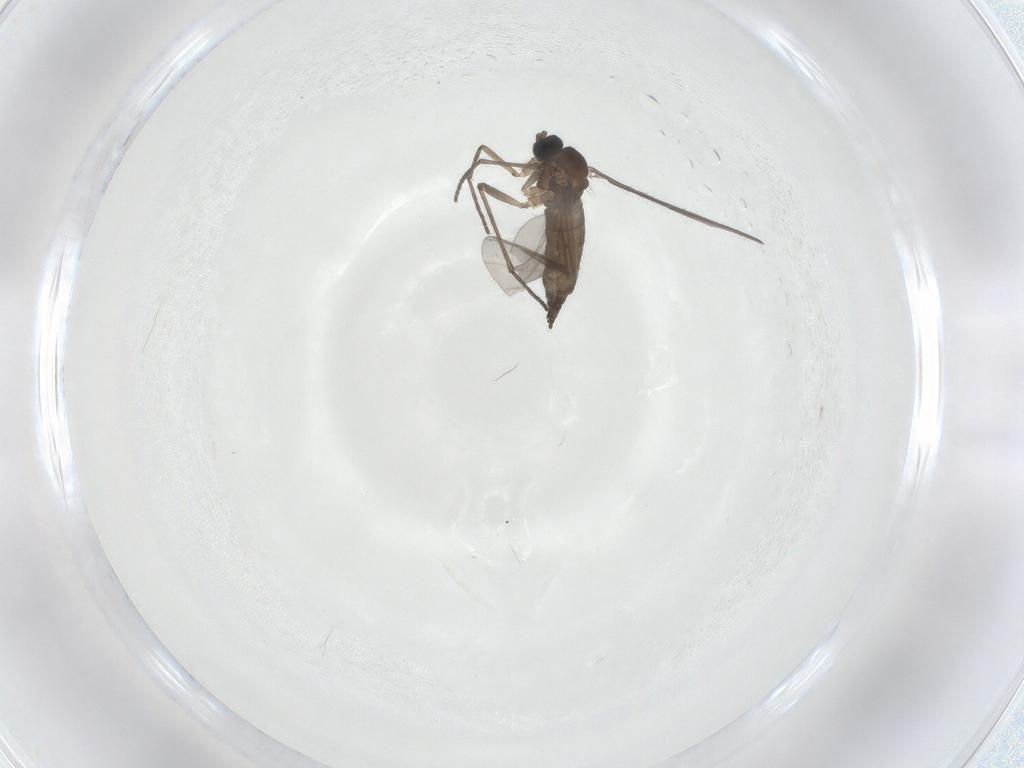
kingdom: Animalia
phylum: Arthropoda
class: Insecta
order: Diptera
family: Sciaridae
